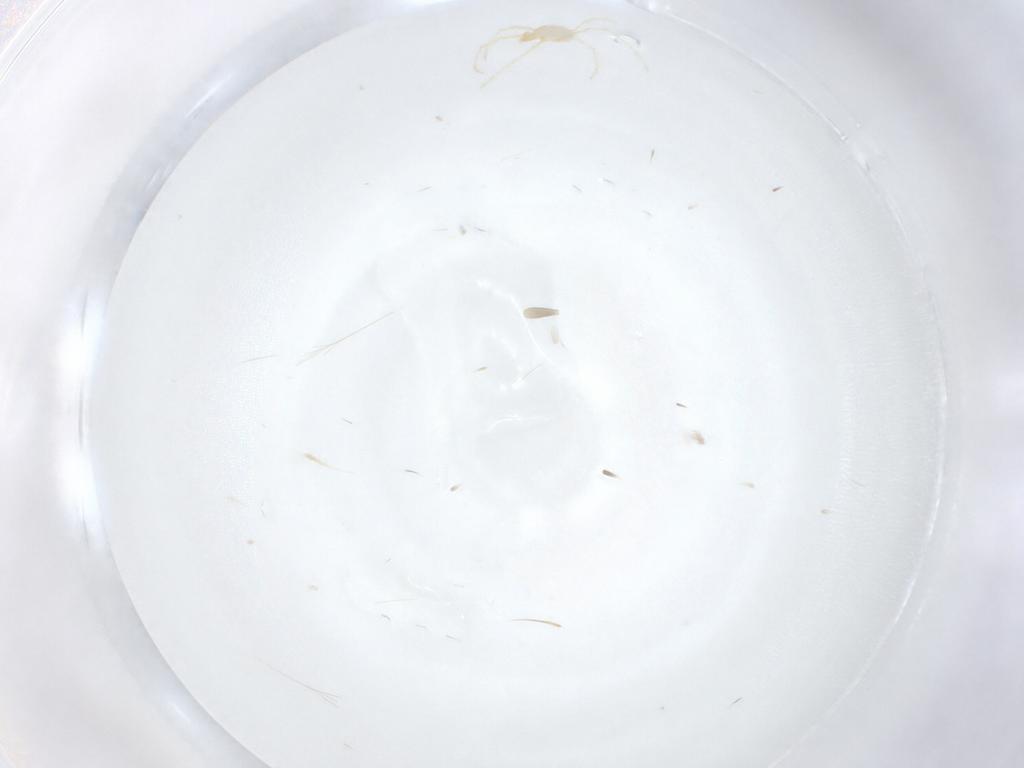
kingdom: Animalia
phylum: Arthropoda
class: Arachnida
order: Trombidiformes
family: Erythraeidae
